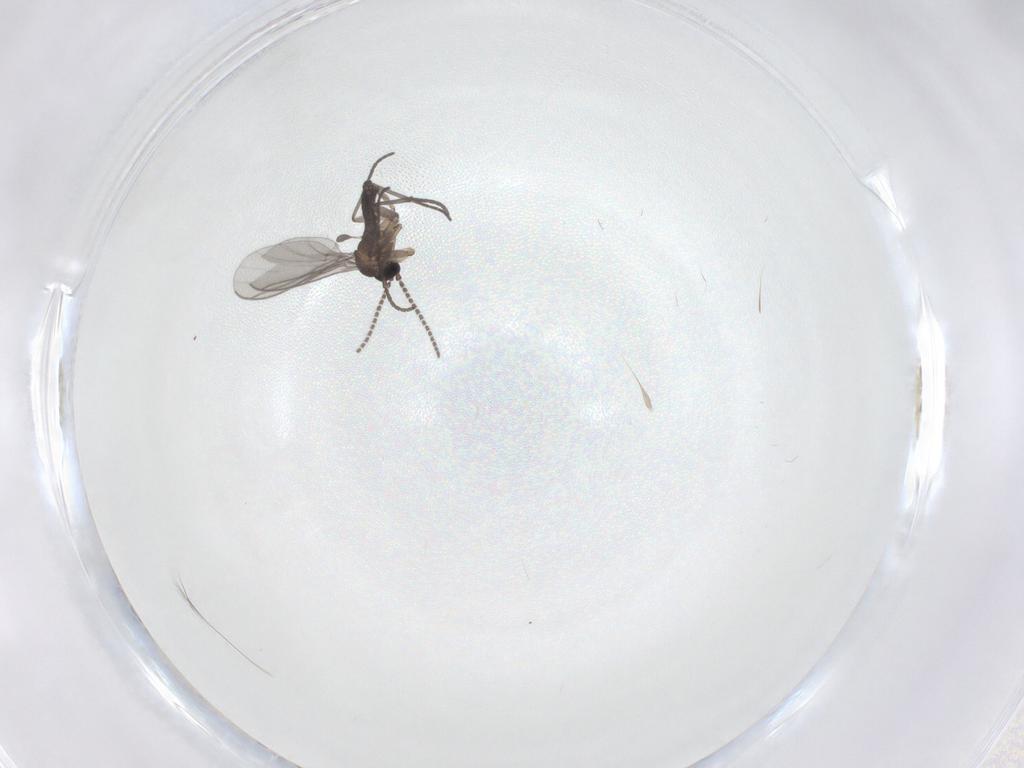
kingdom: Animalia
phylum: Arthropoda
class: Insecta
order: Diptera
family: Sciaridae
